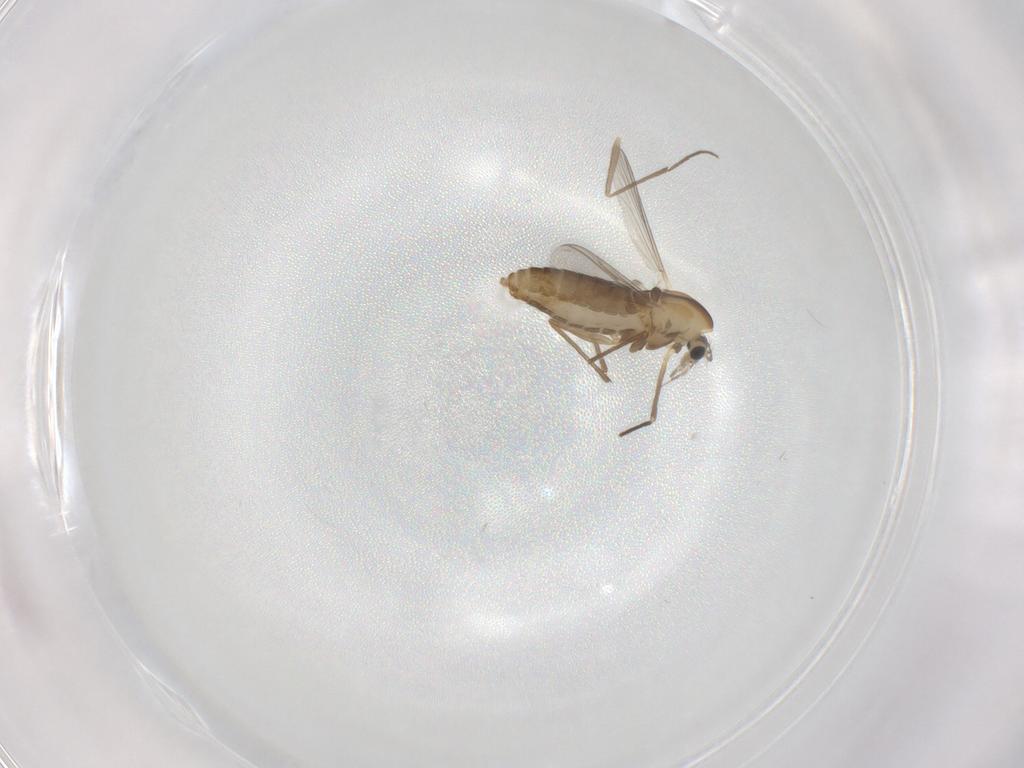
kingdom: Animalia
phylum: Arthropoda
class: Insecta
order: Diptera
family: Chironomidae
